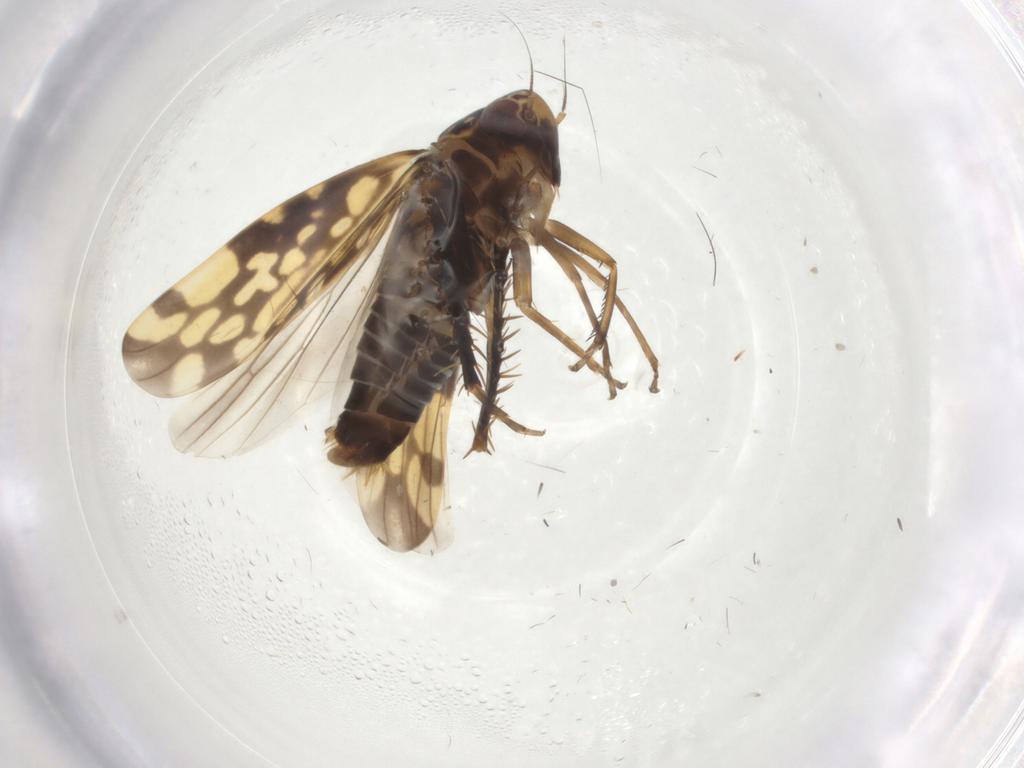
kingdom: Animalia
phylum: Arthropoda
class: Insecta
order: Hemiptera
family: Cicadellidae
